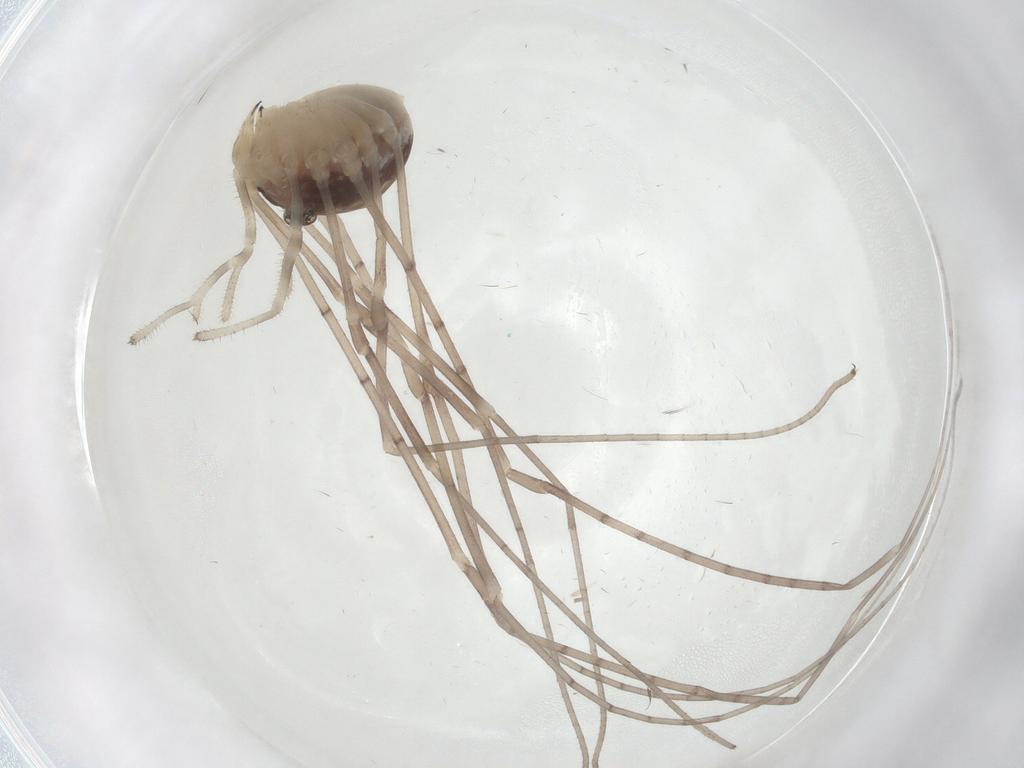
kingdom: Animalia
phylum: Arthropoda
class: Arachnida
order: Opiliones
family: Sclerosomatidae
